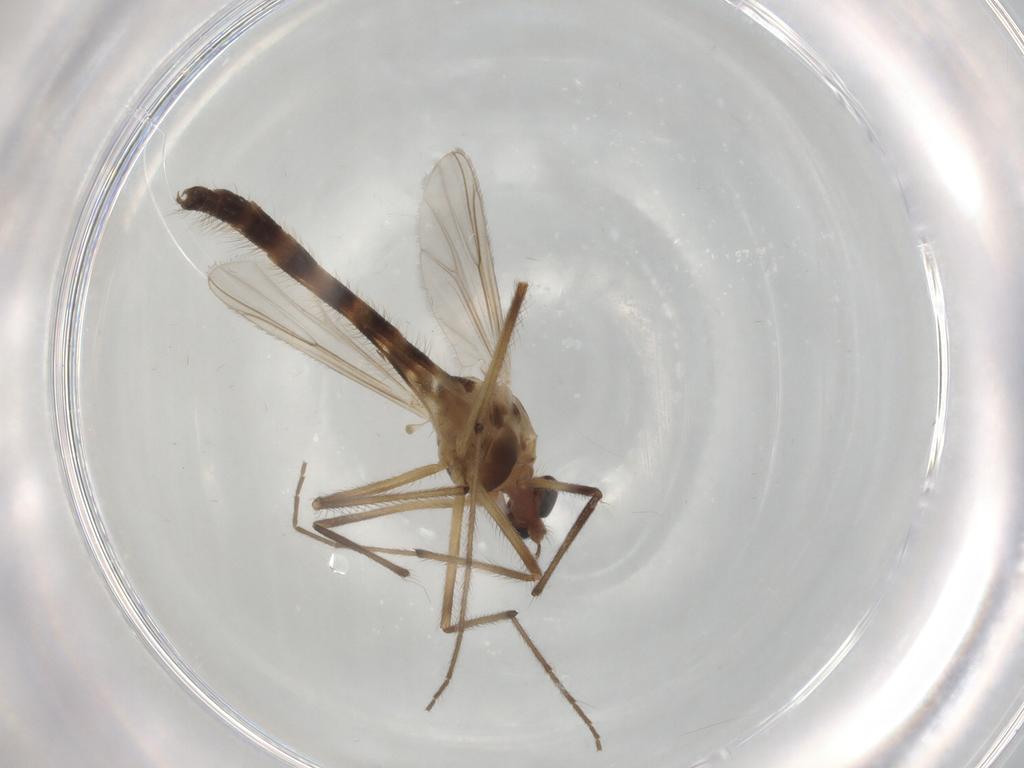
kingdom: Animalia
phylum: Arthropoda
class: Insecta
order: Diptera
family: Chironomidae
